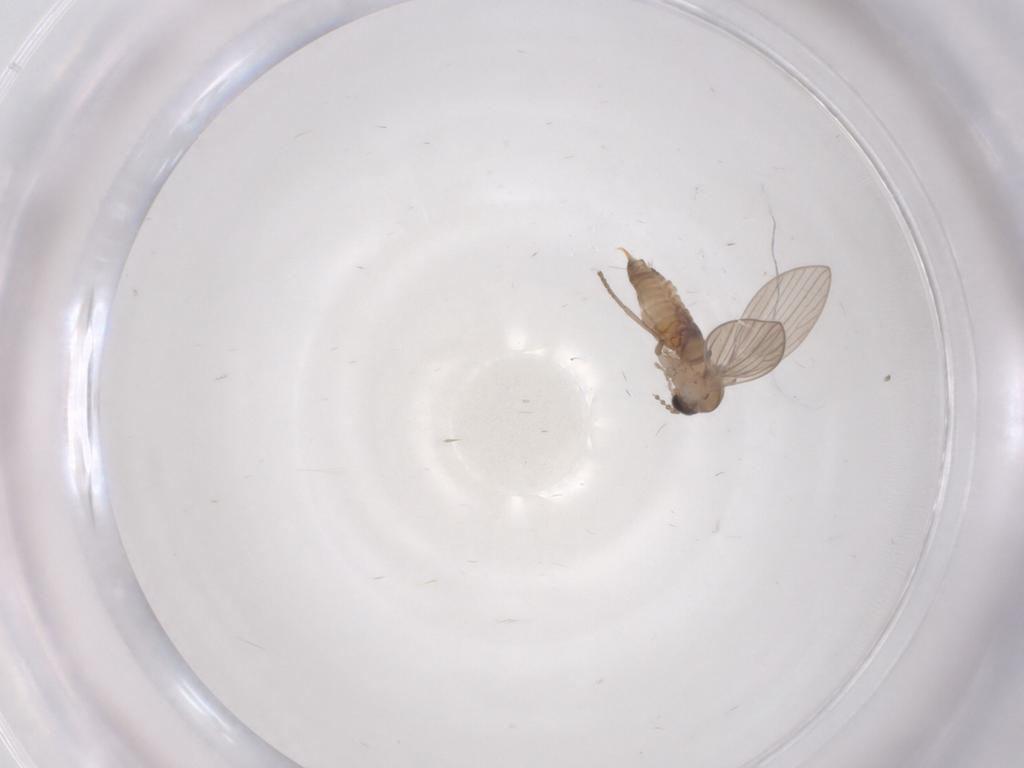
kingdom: Animalia
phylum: Arthropoda
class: Insecta
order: Diptera
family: Psychodidae
